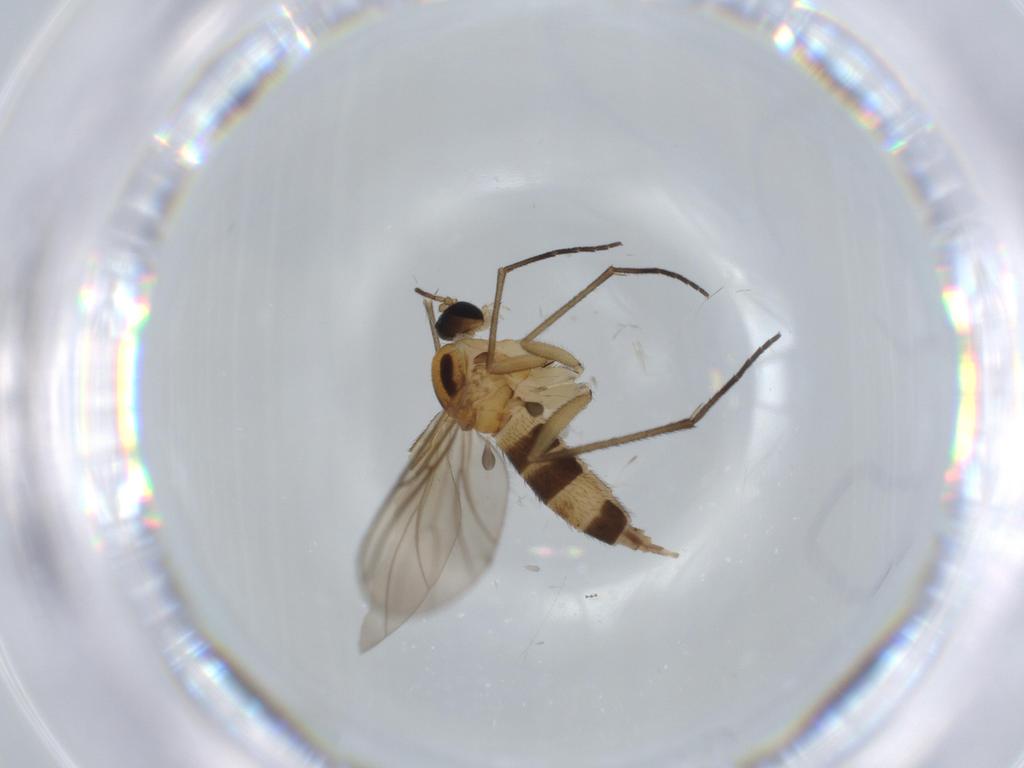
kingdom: Animalia
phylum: Arthropoda
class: Insecta
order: Diptera
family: Sciaridae
